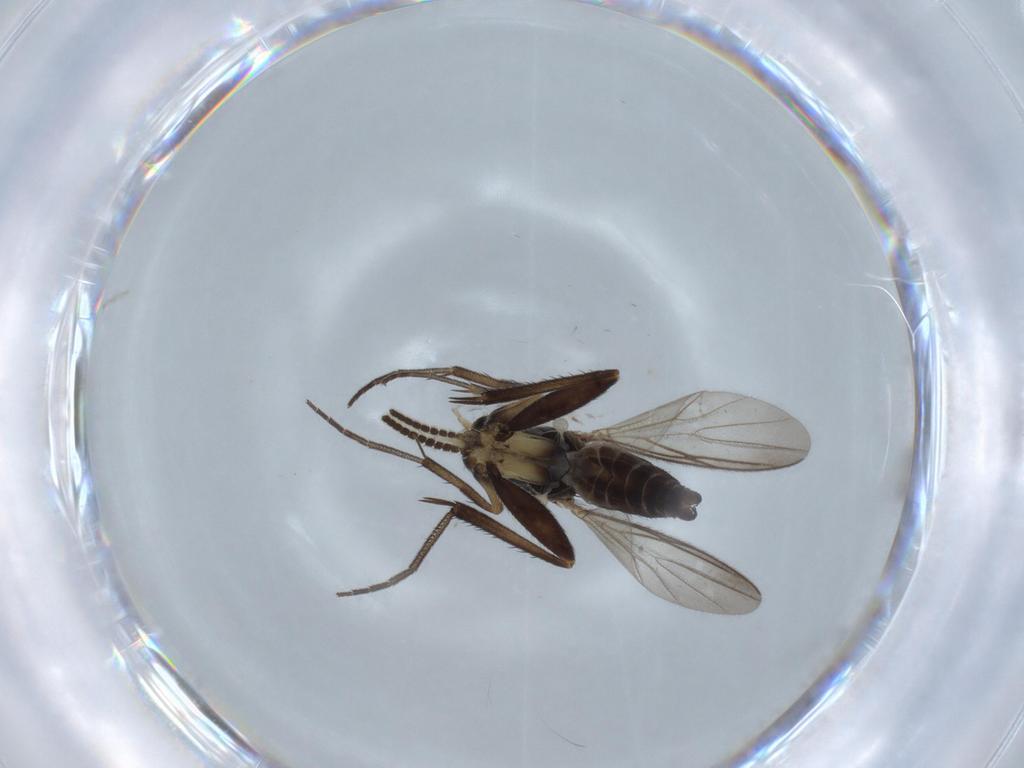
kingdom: Animalia
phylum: Arthropoda
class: Insecta
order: Diptera
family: Mycetophilidae
